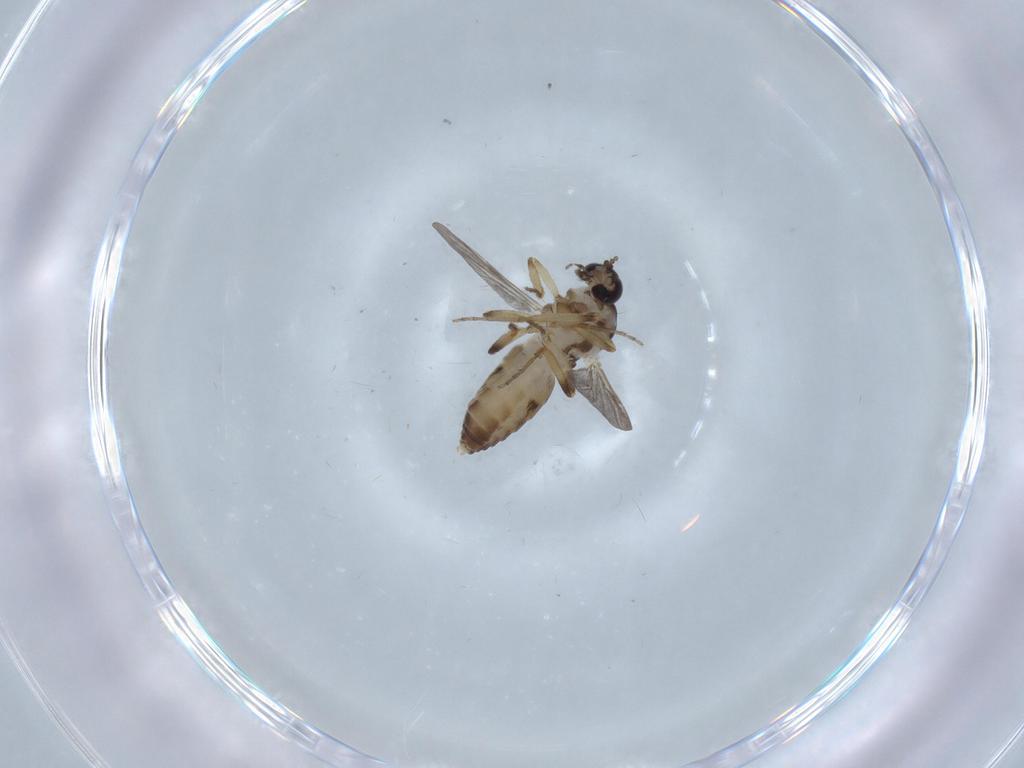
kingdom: Animalia
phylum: Arthropoda
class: Insecta
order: Diptera
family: Ceratopogonidae
